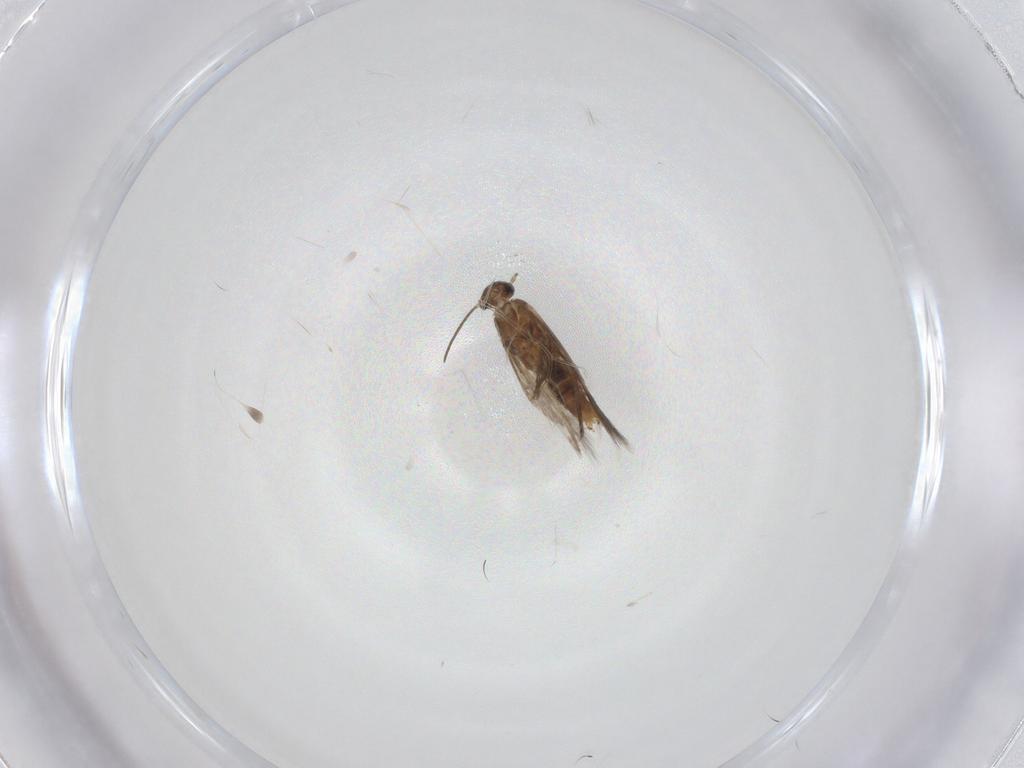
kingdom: Animalia
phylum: Arthropoda
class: Insecta
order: Lepidoptera
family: Heliozelidae
